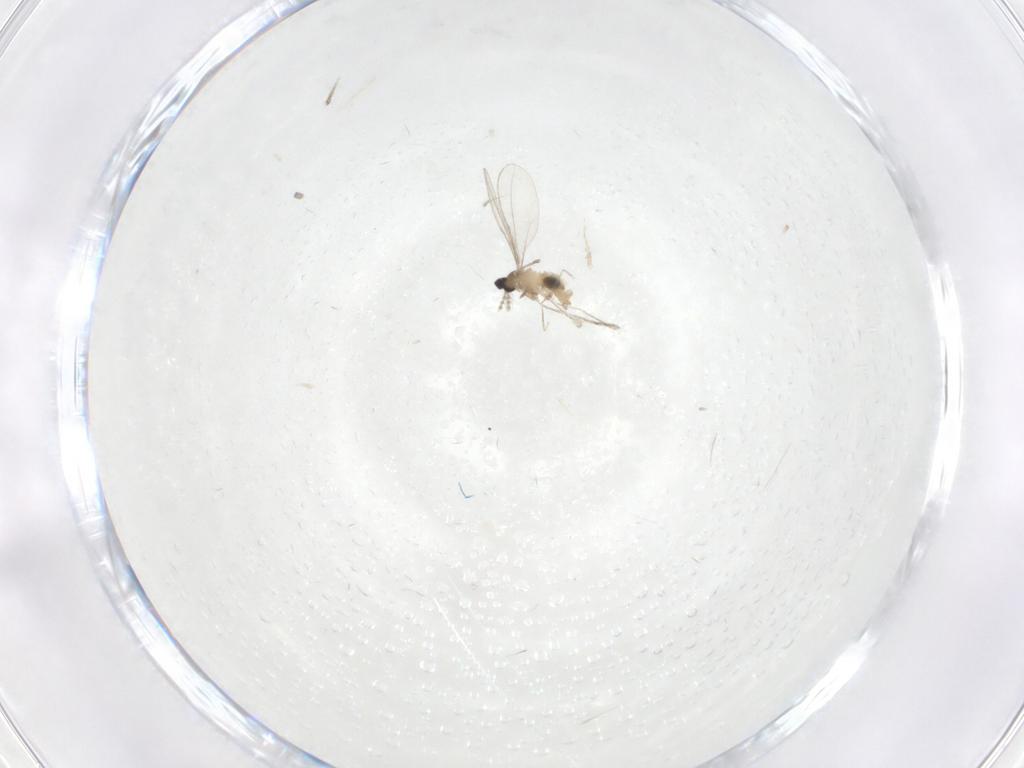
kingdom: Animalia
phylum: Arthropoda
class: Insecta
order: Diptera
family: Cecidomyiidae
